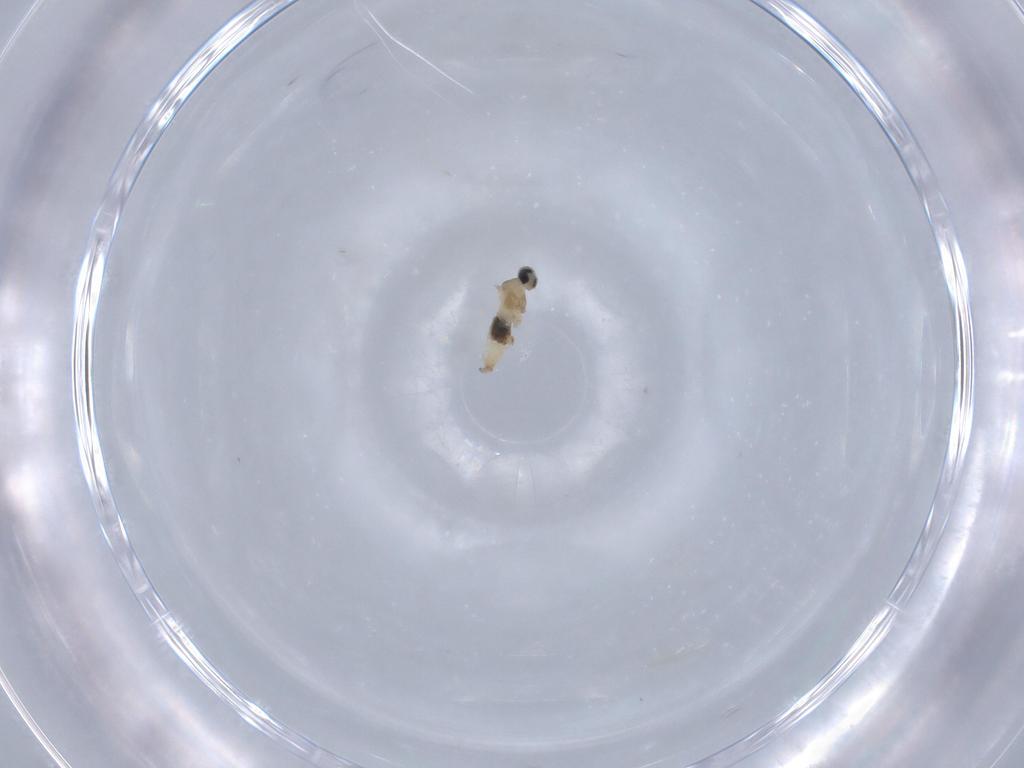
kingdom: Animalia
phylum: Arthropoda
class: Insecta
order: Diptera
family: Cecidomyiidae
